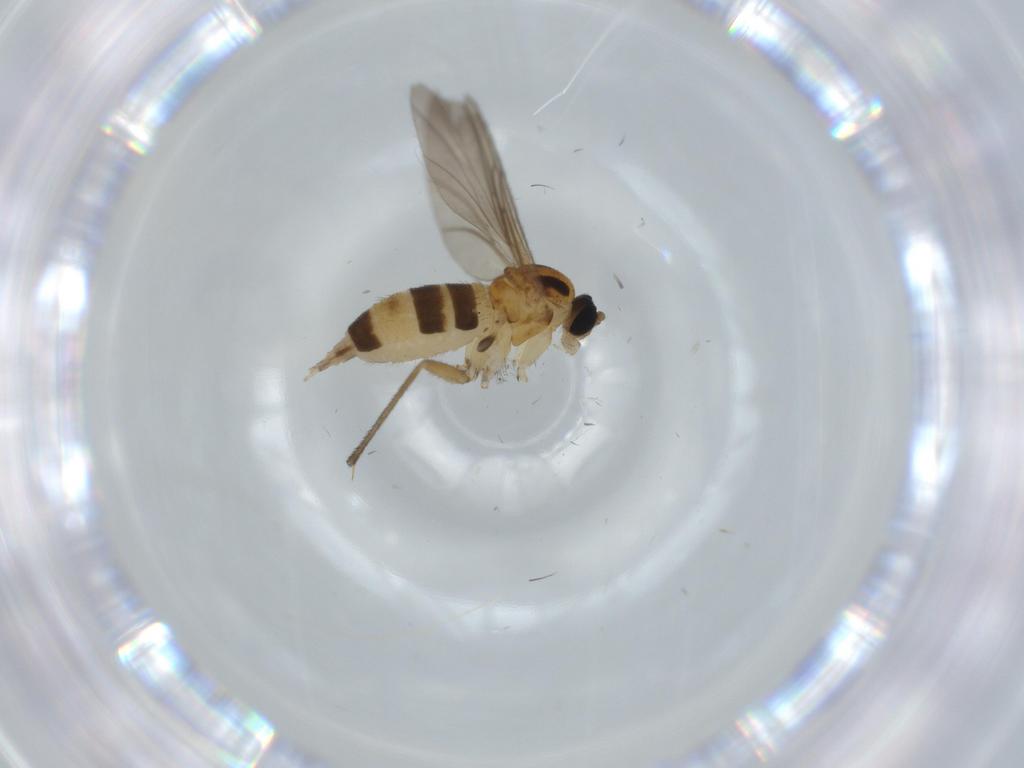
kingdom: Animalia
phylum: Arthropoda
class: Insecta
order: Diptera
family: Sciaridae
